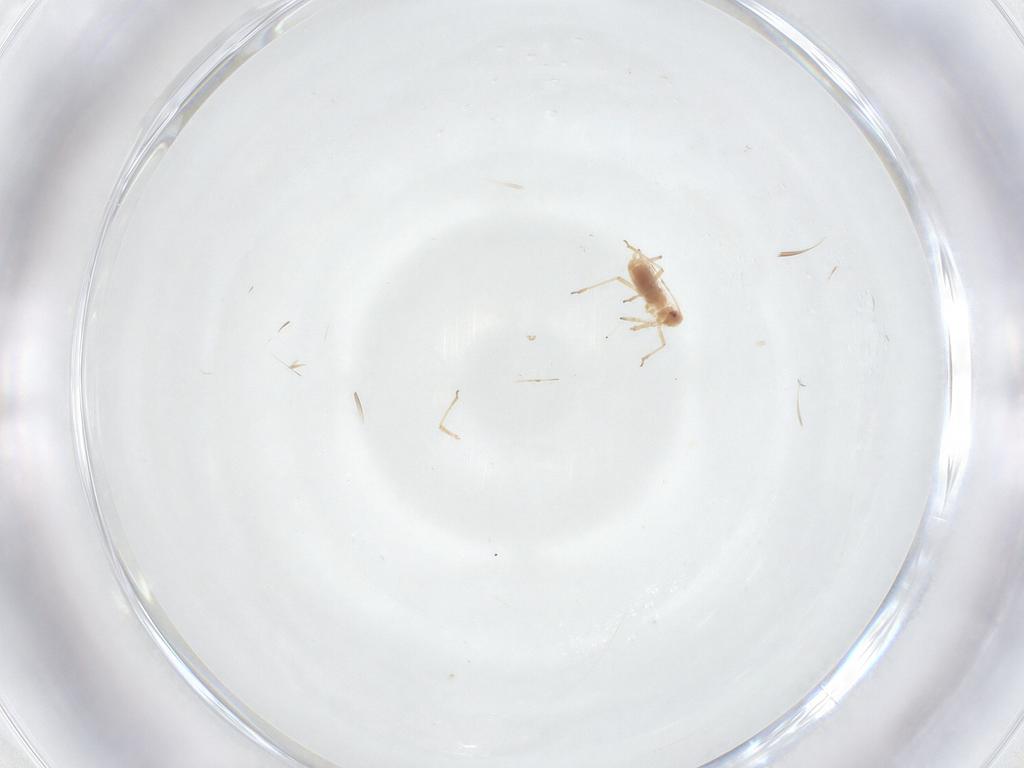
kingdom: Animalia
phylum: Arthropoda
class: Insecta
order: Hemiptera
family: Aphididae
